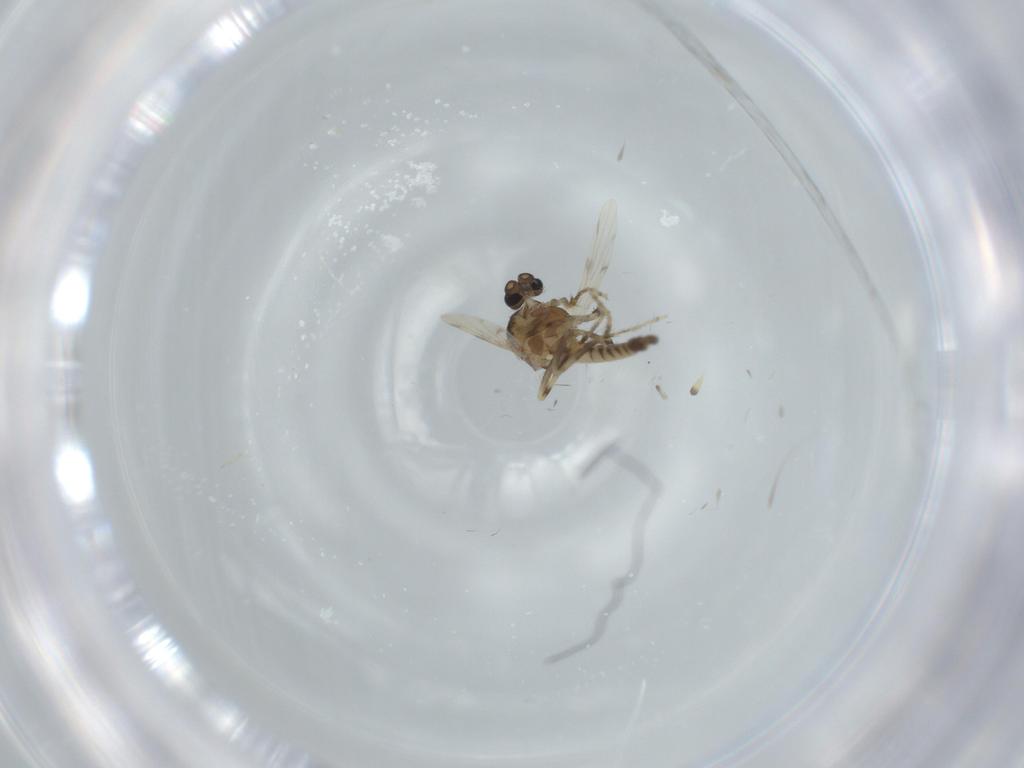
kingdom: Animalia
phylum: Arthropoda
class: Insecta
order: Diptera
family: Ceratopogonidae
